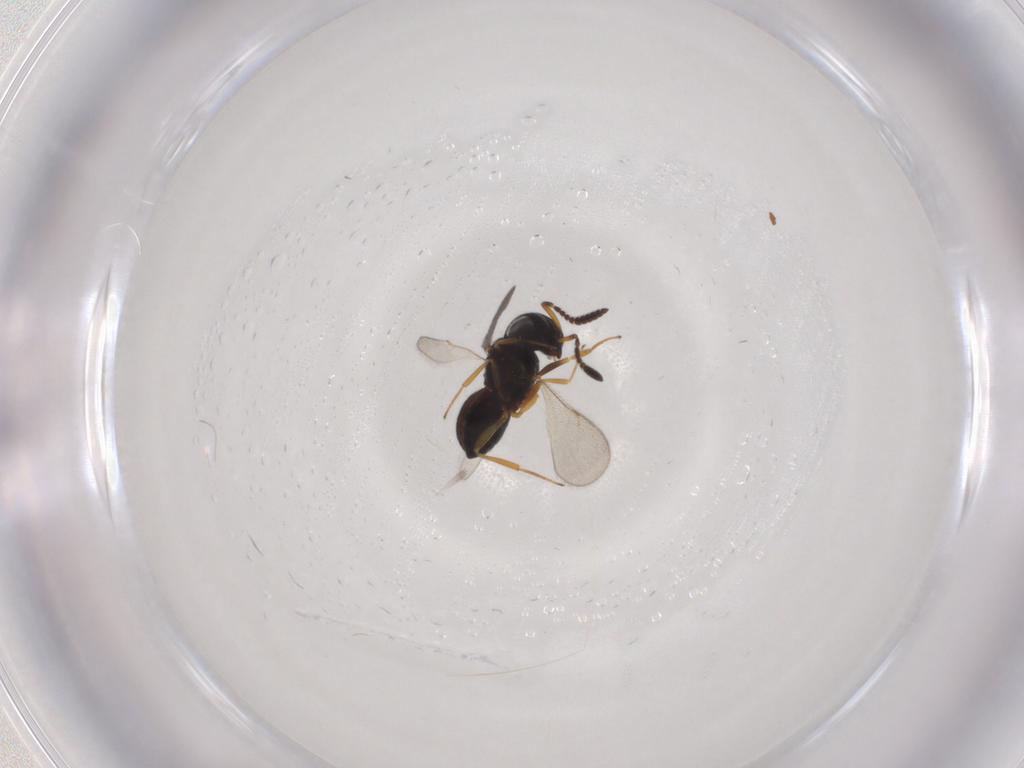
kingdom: Animalia
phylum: Arthropoda
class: Insecta
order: Hymenoptera
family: Scelionidae
